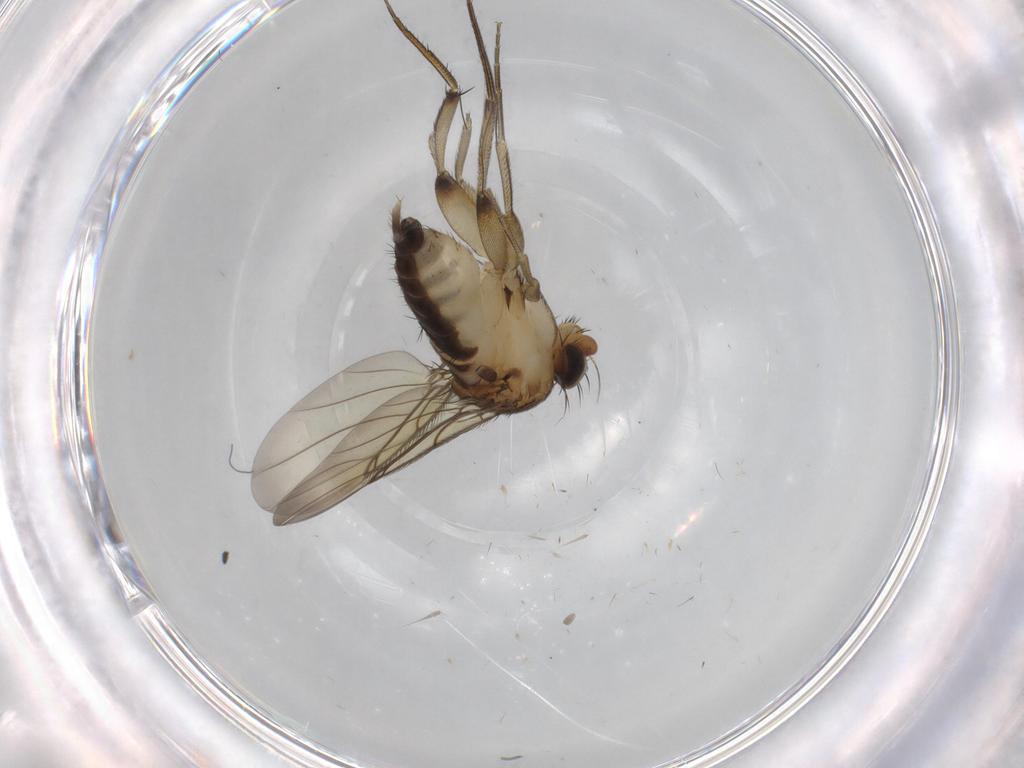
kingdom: Animalia
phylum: Arthropoda
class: Insecta
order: Diptera
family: Phoridae
